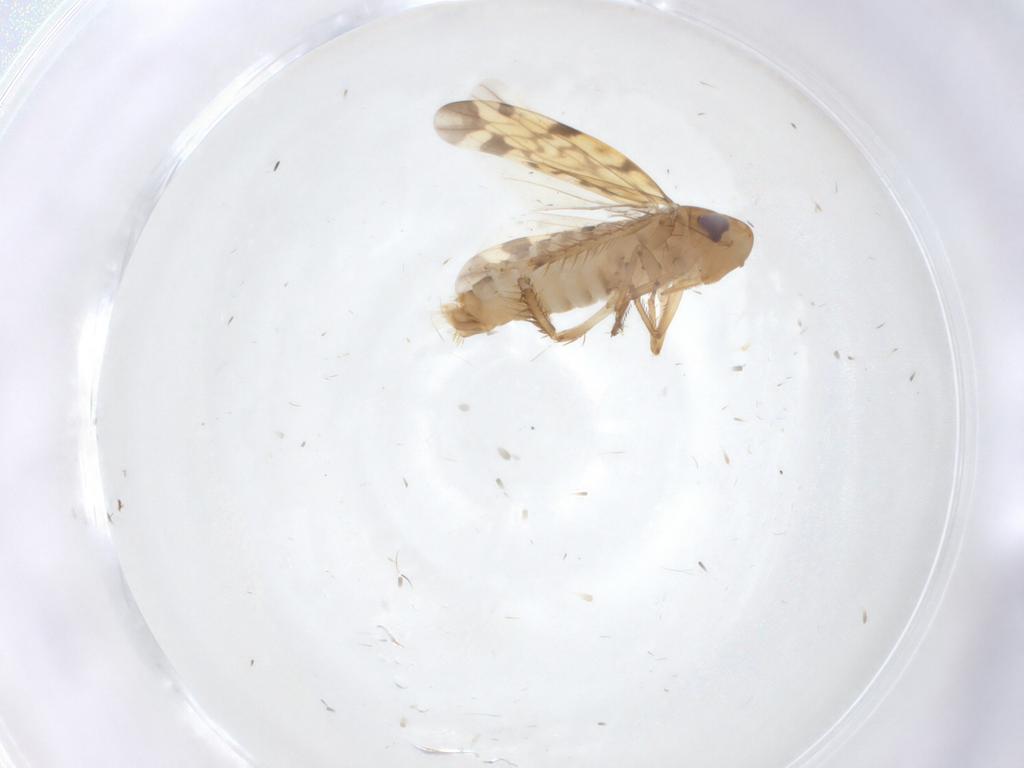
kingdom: Animalia
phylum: Arthropoda
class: Insecta
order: Hemiptera
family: Cicadellidae
